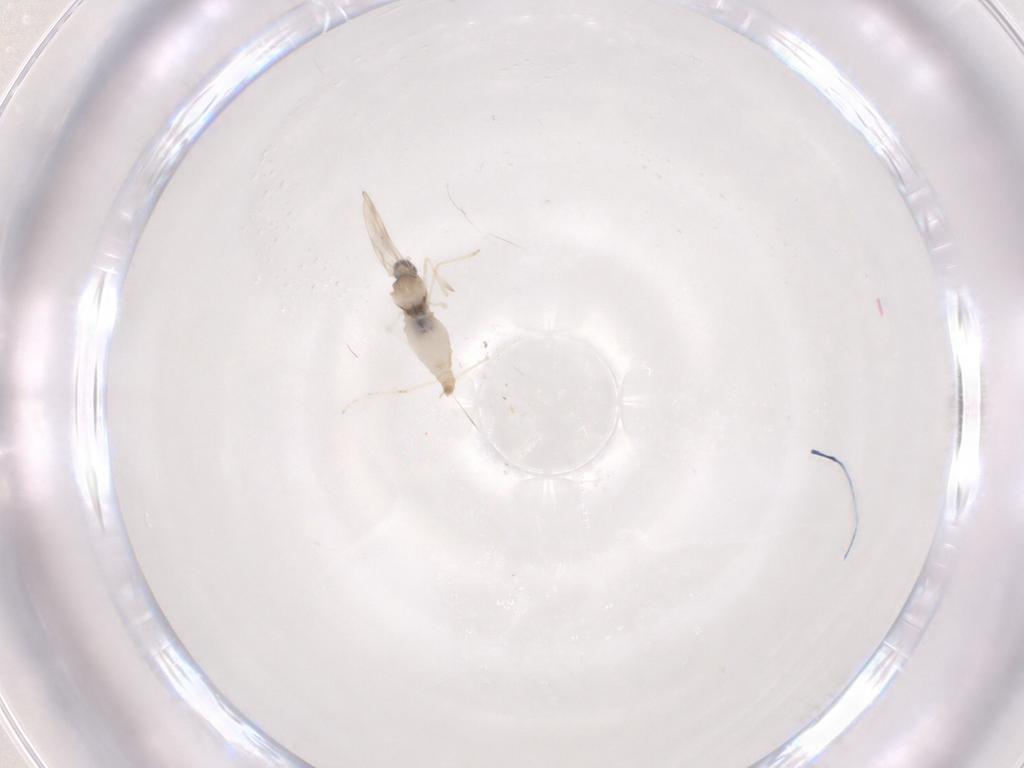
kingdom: Animalia
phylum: Arthropoda
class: Insecta
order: Diptera
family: Cecidomyiidae
